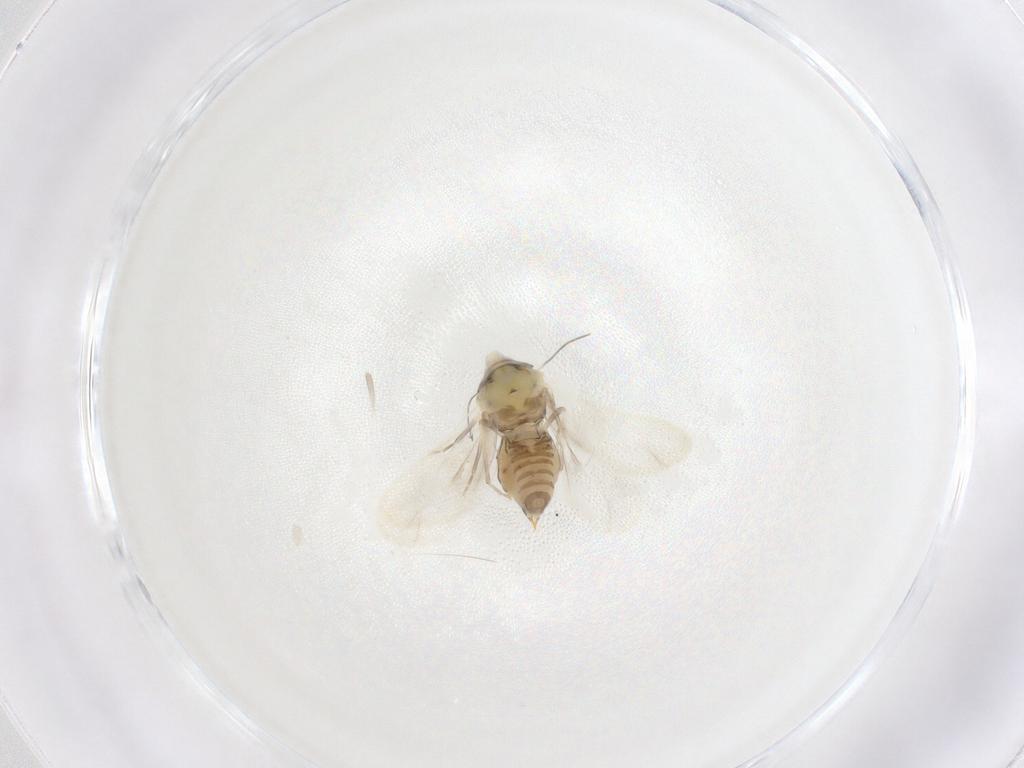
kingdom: Animalia
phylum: Arthropoda
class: Insecta
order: Hemiptera
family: Aleyrodidae
